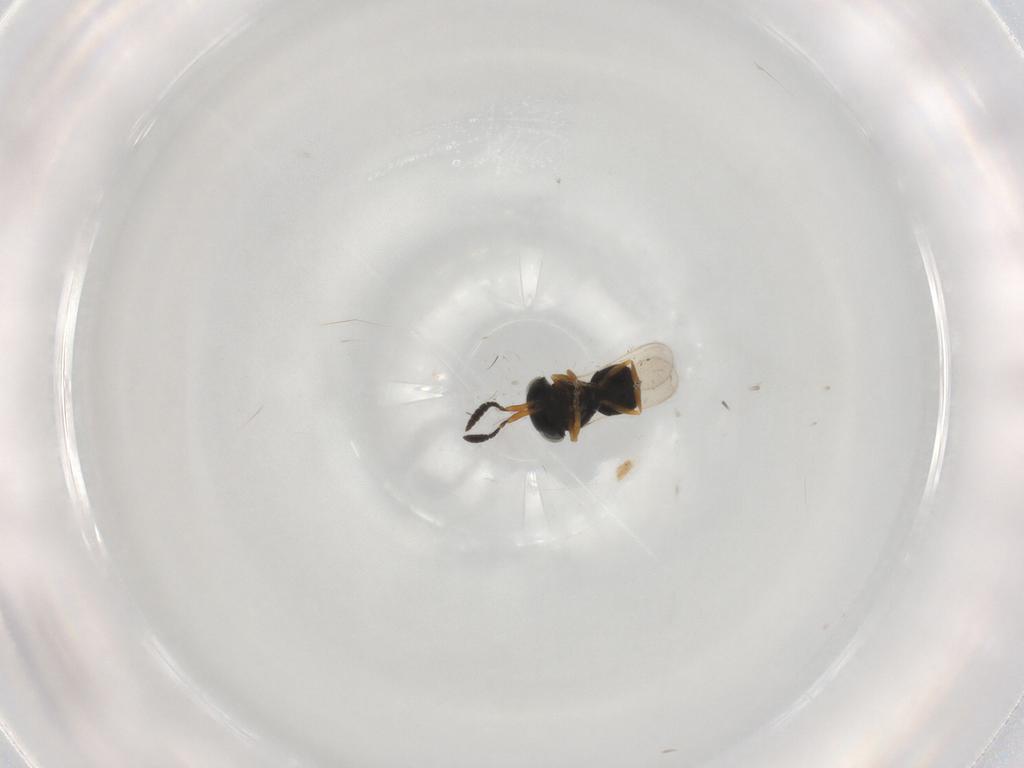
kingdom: Animalia
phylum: Arthropoda
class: Insecta
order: Hymenoptera
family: Scelionidae
